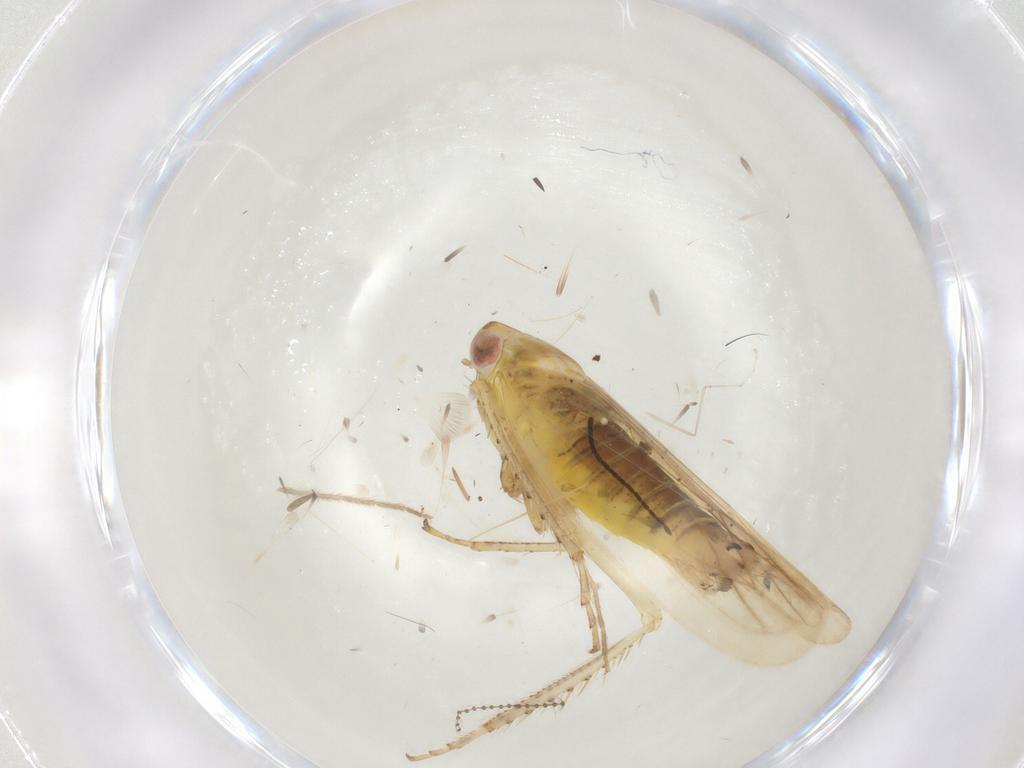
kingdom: Animalia
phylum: Arthropoda
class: Insecta
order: Hemiptera
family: Cicadellidae
